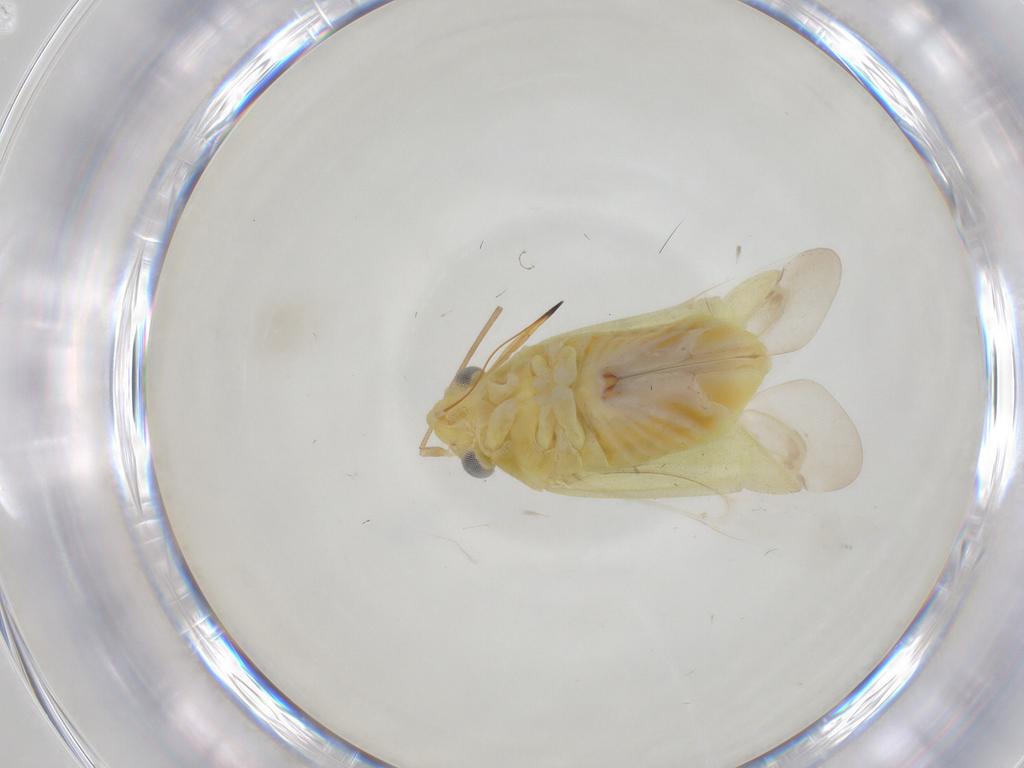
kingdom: Animalia
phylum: Arthropoda
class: Insecta
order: Hemiptera
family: Miridae
